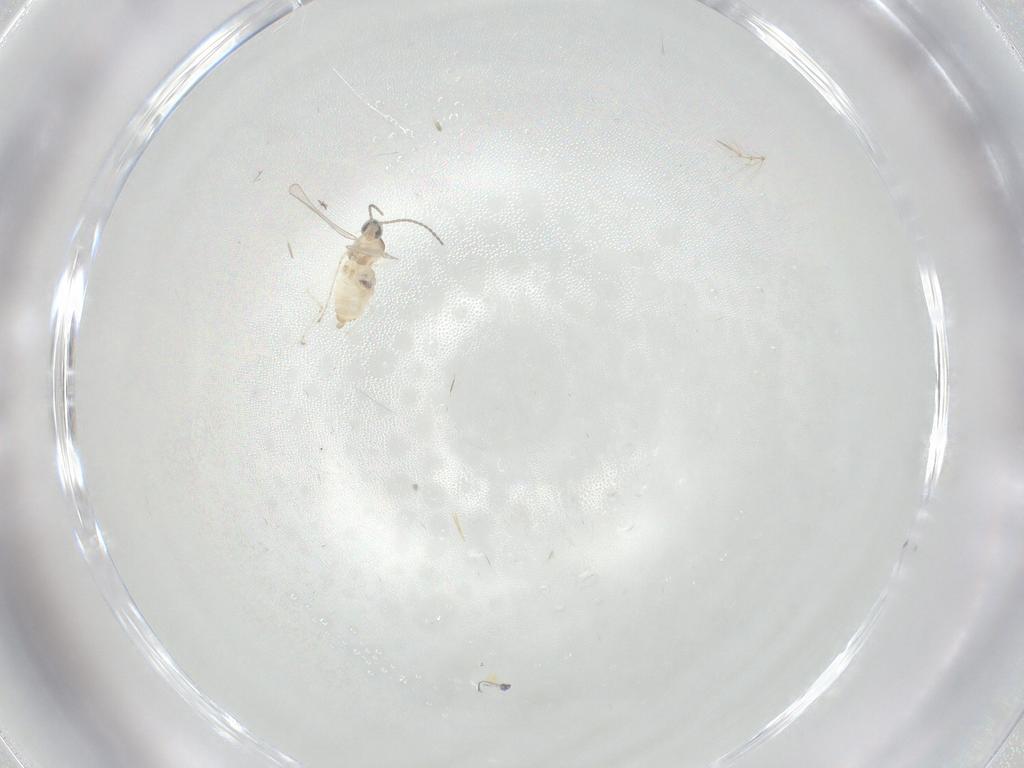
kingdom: Animalia
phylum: Arthropoda
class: Insecta
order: Diptera
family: Cecidomyiidae
